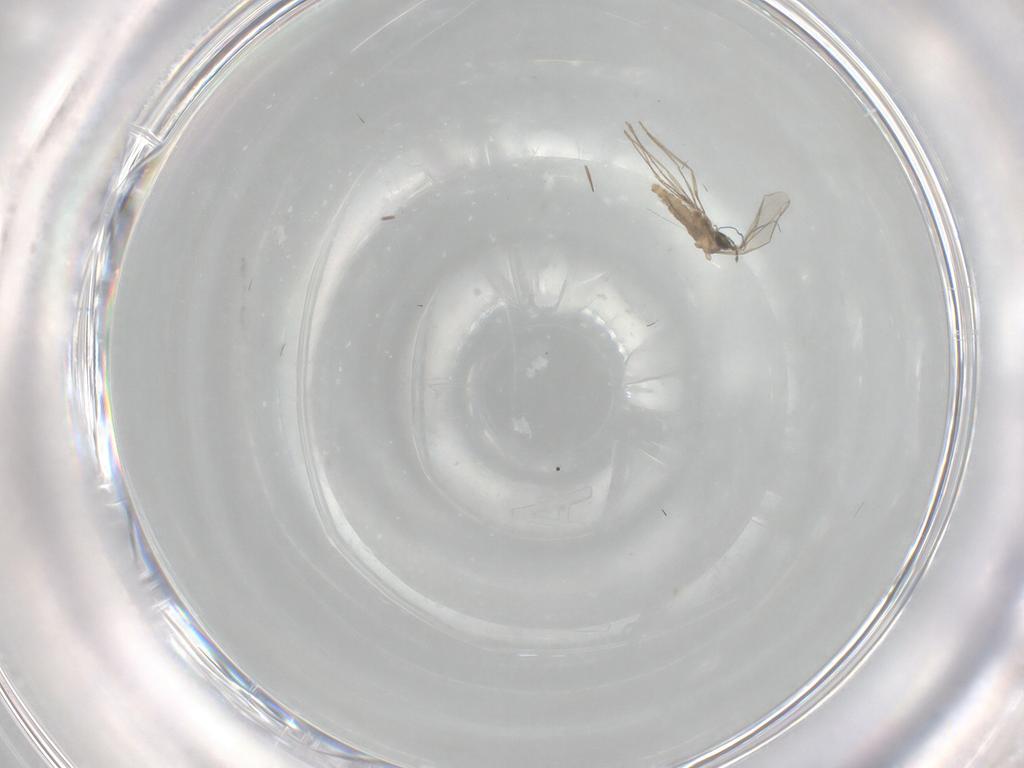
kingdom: Animalia
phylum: Arthropoda
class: Insecta
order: Diptera
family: Cecidomyiidae
